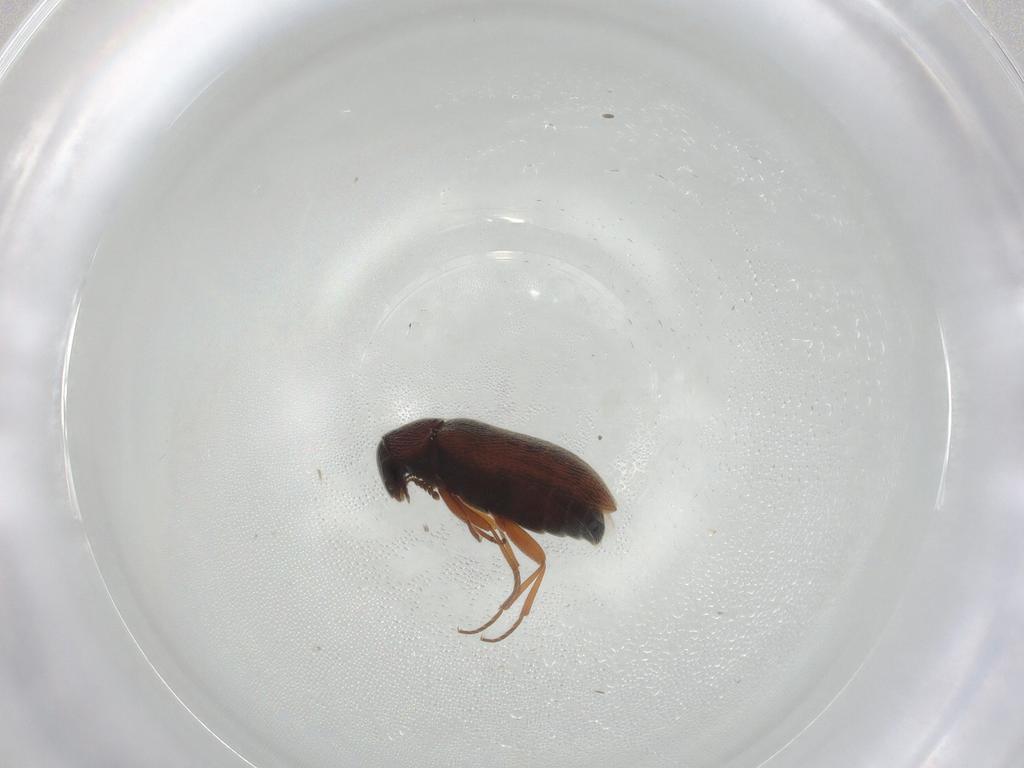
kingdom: Animalia
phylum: Arthropoda
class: Insecta
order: Coleoptera
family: Rhadalidae
